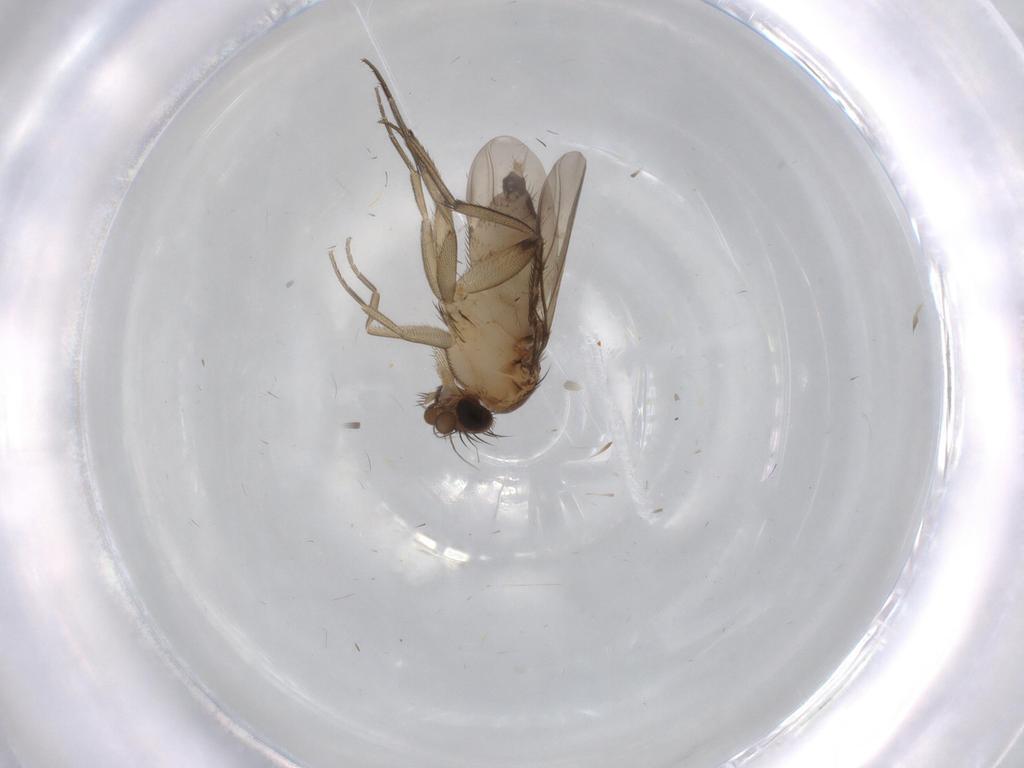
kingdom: Animalia
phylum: Arthropoda
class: Insecta
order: Diptera
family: Phoridae
